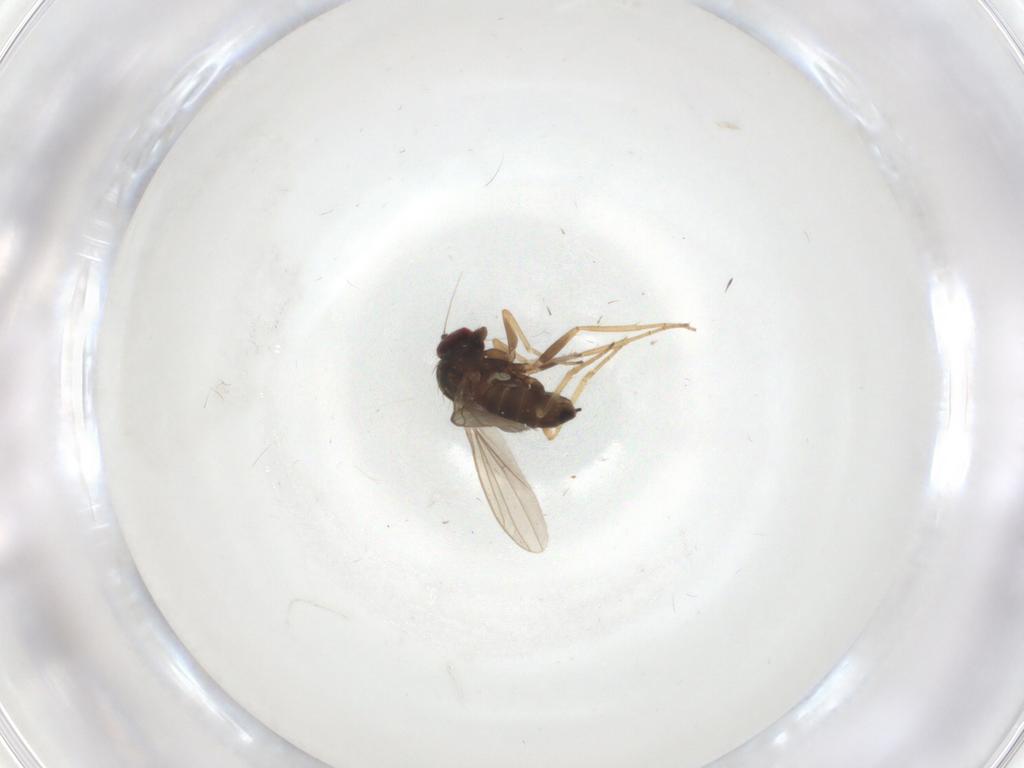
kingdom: Animalia
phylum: Arthropoda
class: Insecta
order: Diptera
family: Dolichopodidae
